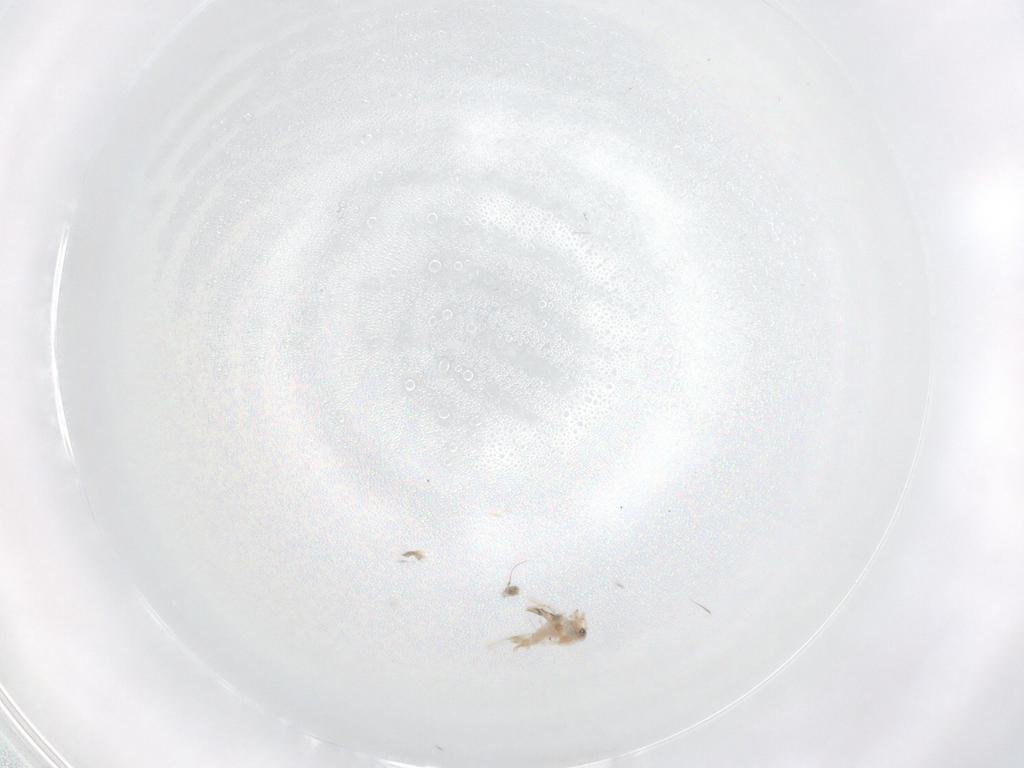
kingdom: Animalia
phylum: Arthropoda
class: Insecta
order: Hemiptera
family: Aleyrodidae
